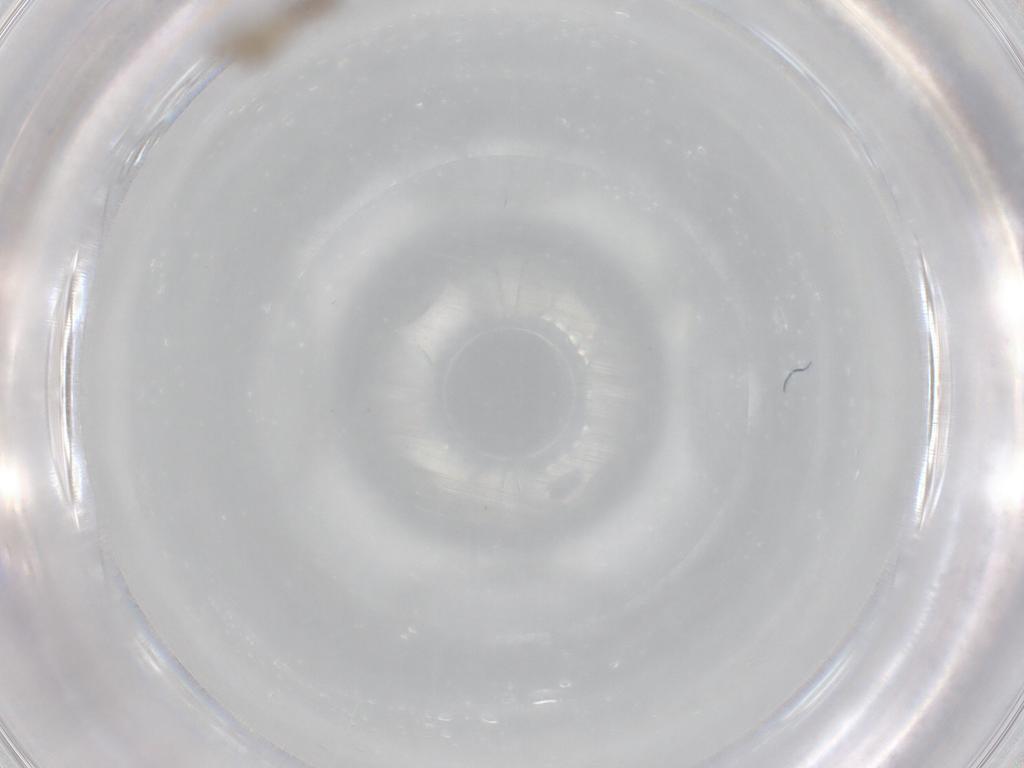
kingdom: Animalia
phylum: Arthropoda
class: Insecta
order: Diptera
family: Chironomidae
